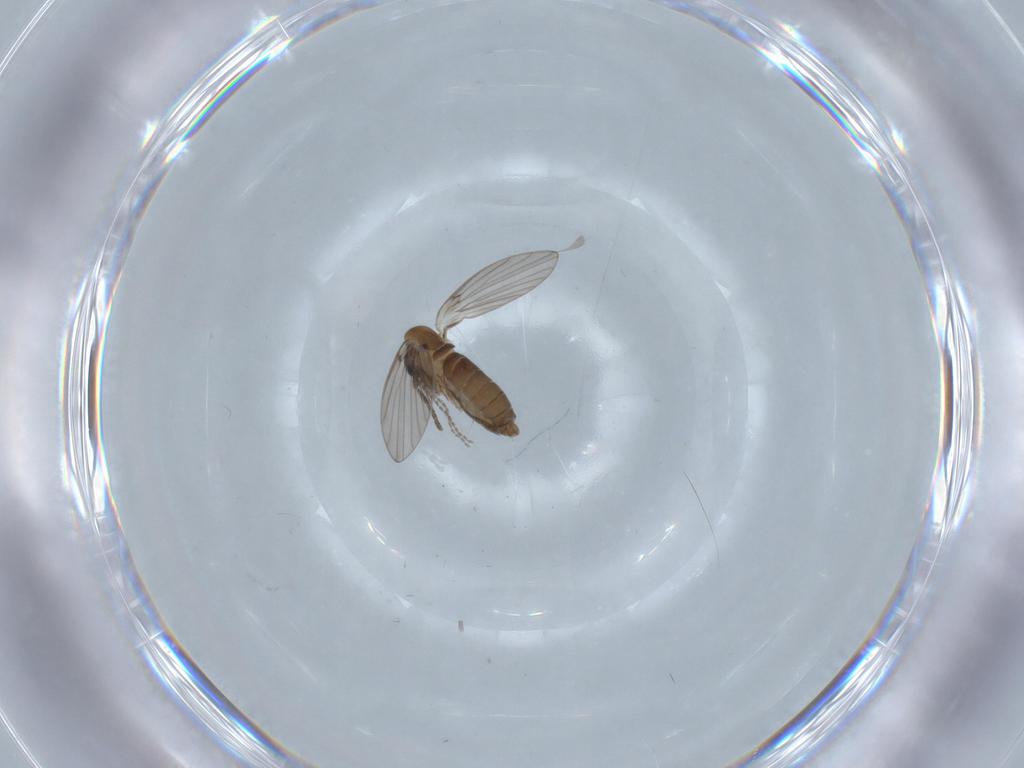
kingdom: Animalia
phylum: Arthropoda
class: Insecta
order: Diptera
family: Psychodidae
